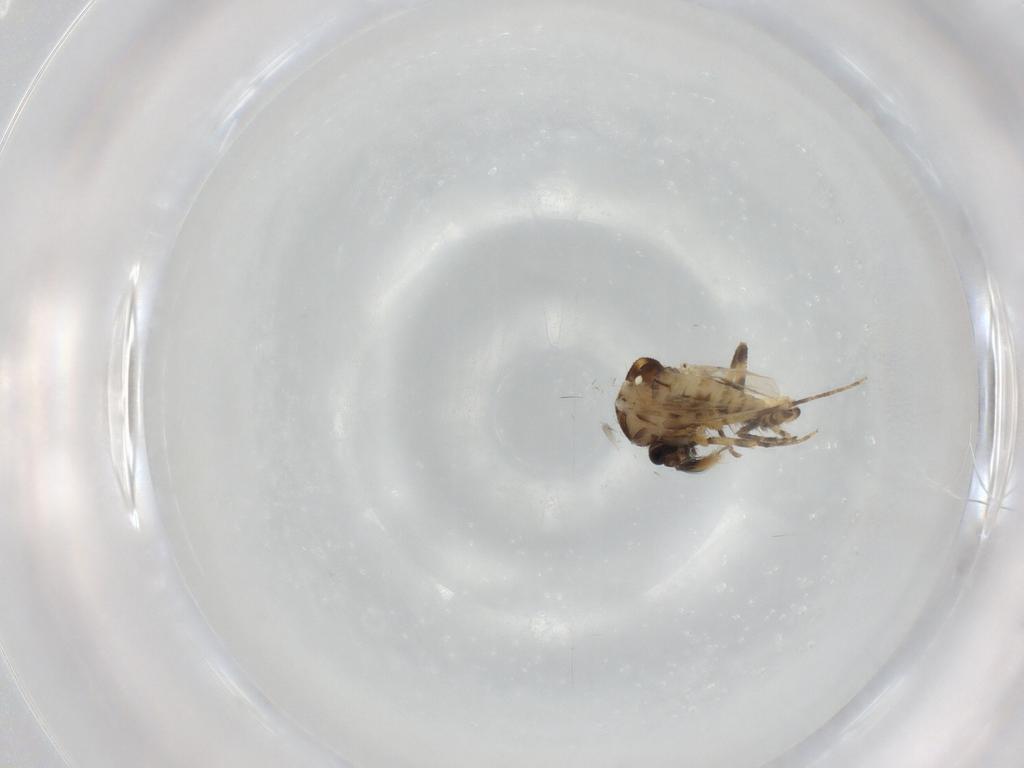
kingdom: Animalia
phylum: Arthropoda
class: Insecta
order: Diptera
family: Ceratopogonidae
